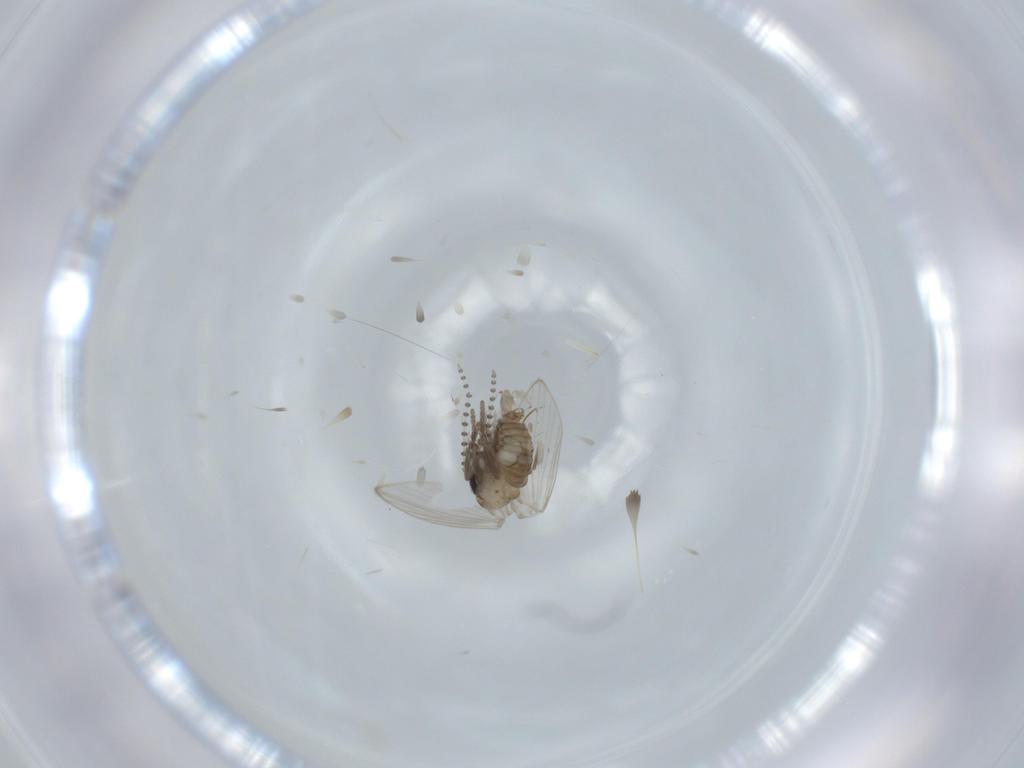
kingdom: Animalia
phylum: Arthropoda
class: Insecta
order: Diptera
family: Psychodidae
